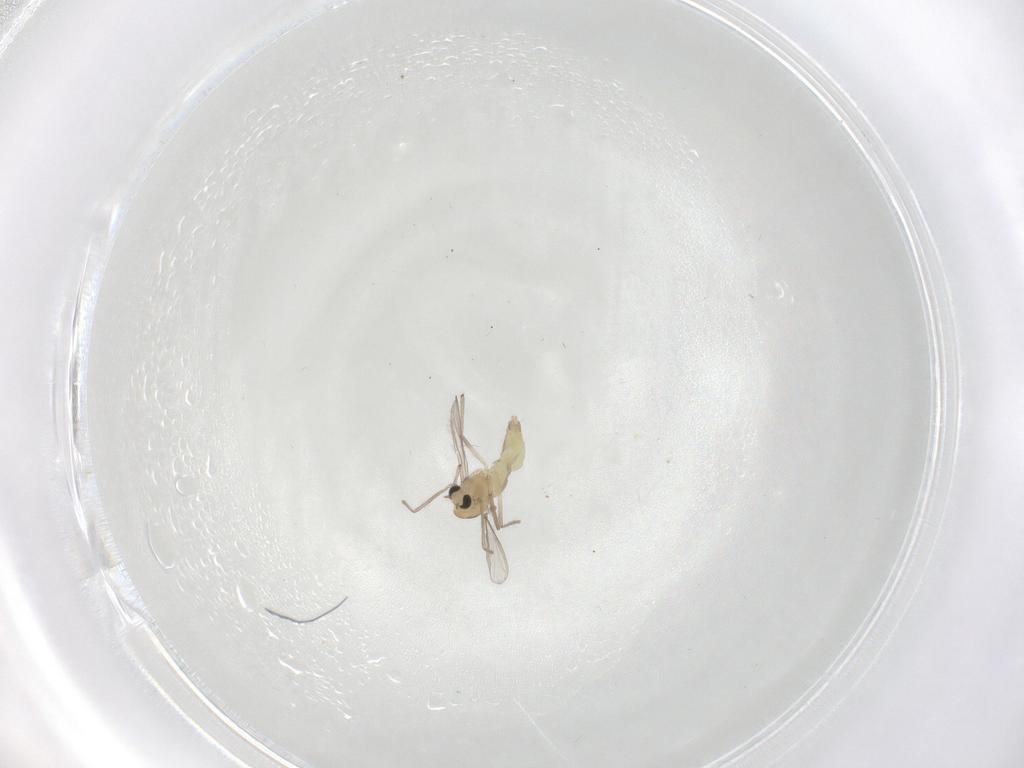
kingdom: Animalia
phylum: Arthropoda
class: Insecta
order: Diptera
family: Chironomidae
